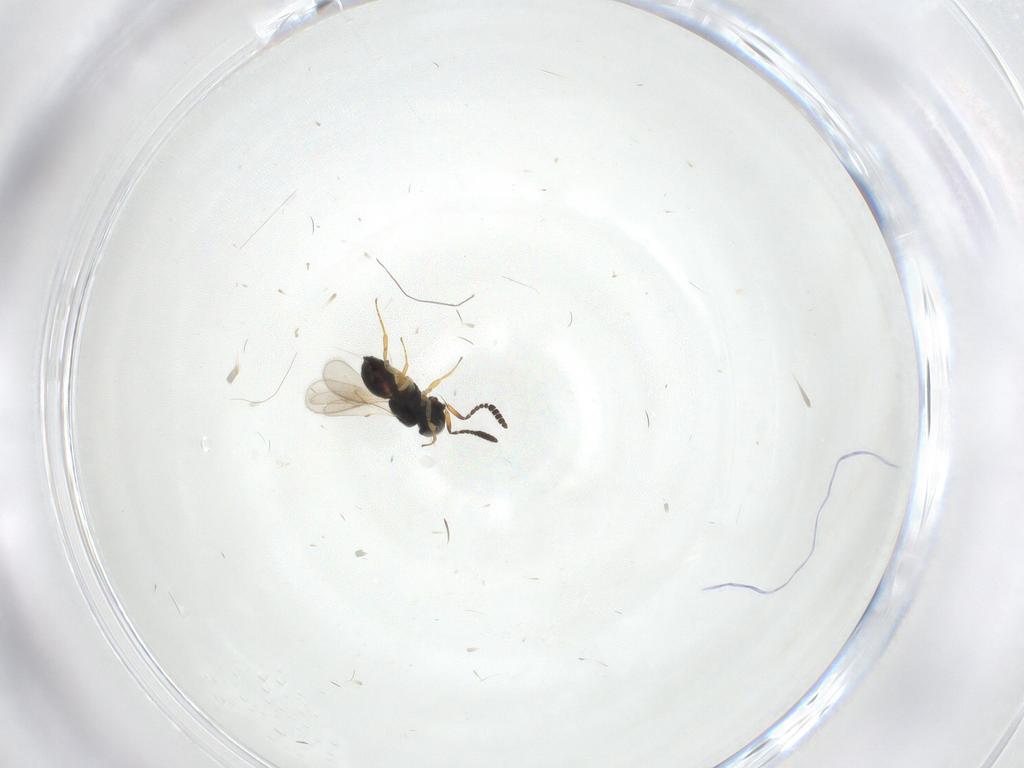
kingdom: Animalia
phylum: Arthropoda
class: Insecta
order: Hymenoptera
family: Scelionidae
